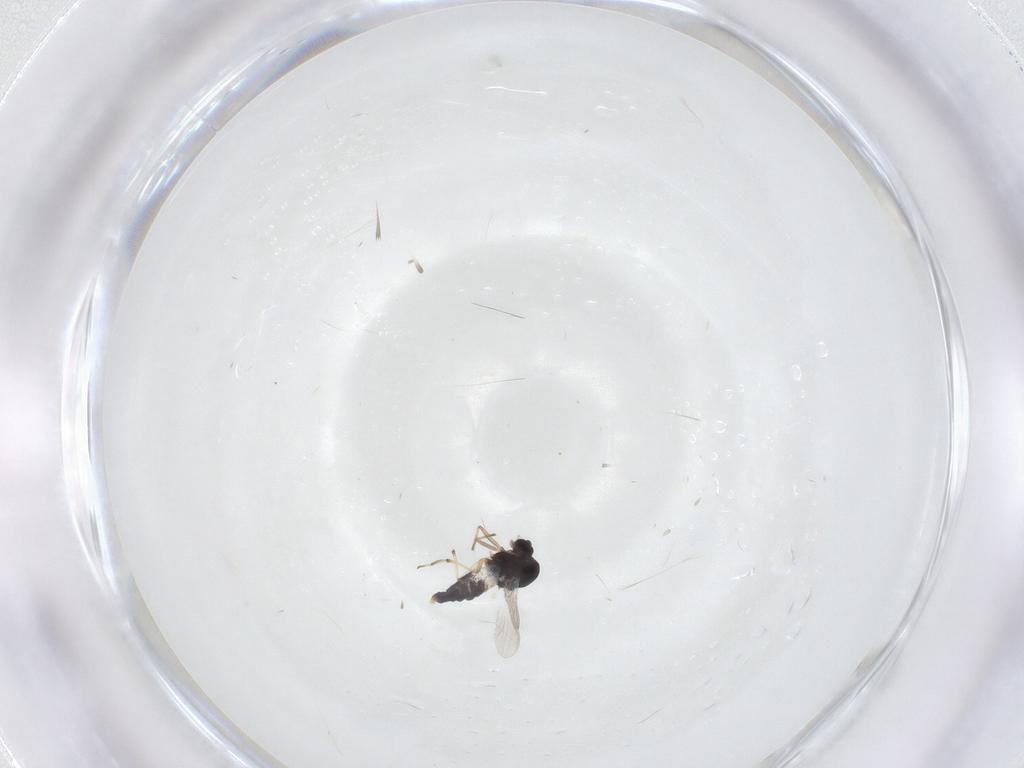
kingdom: Animalia
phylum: Arthropoda
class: Insecta
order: Diptera
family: Chironomidae
